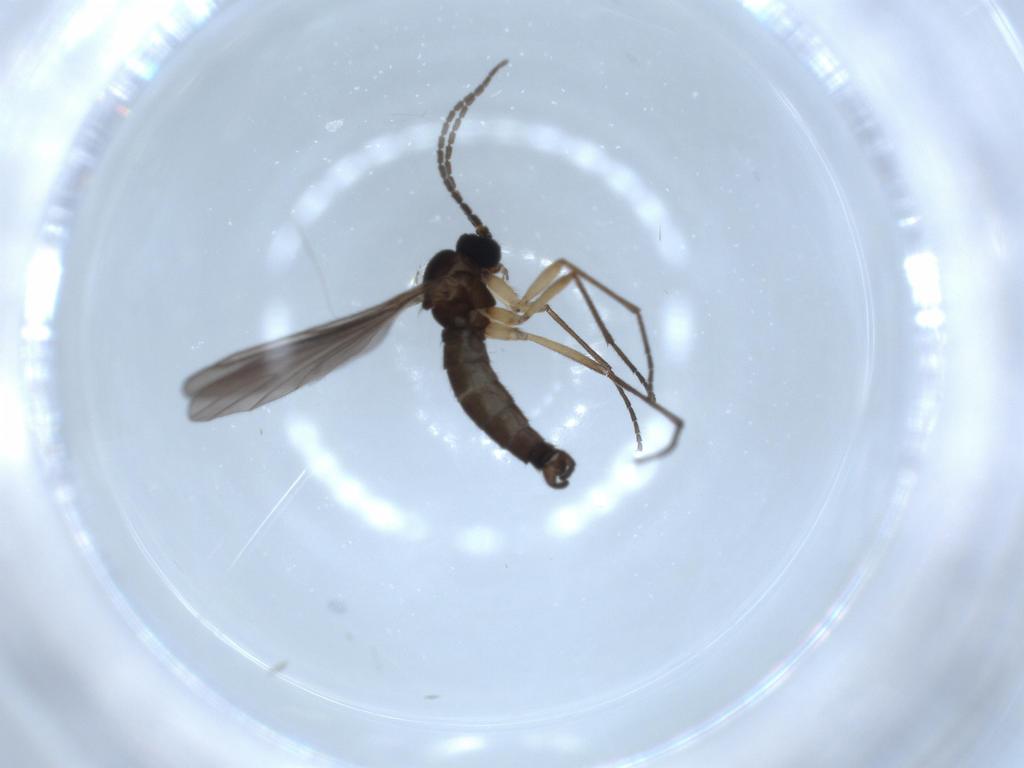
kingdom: Animalia
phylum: Arthropoda
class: Insecta
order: Diptera
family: Sciaridae
